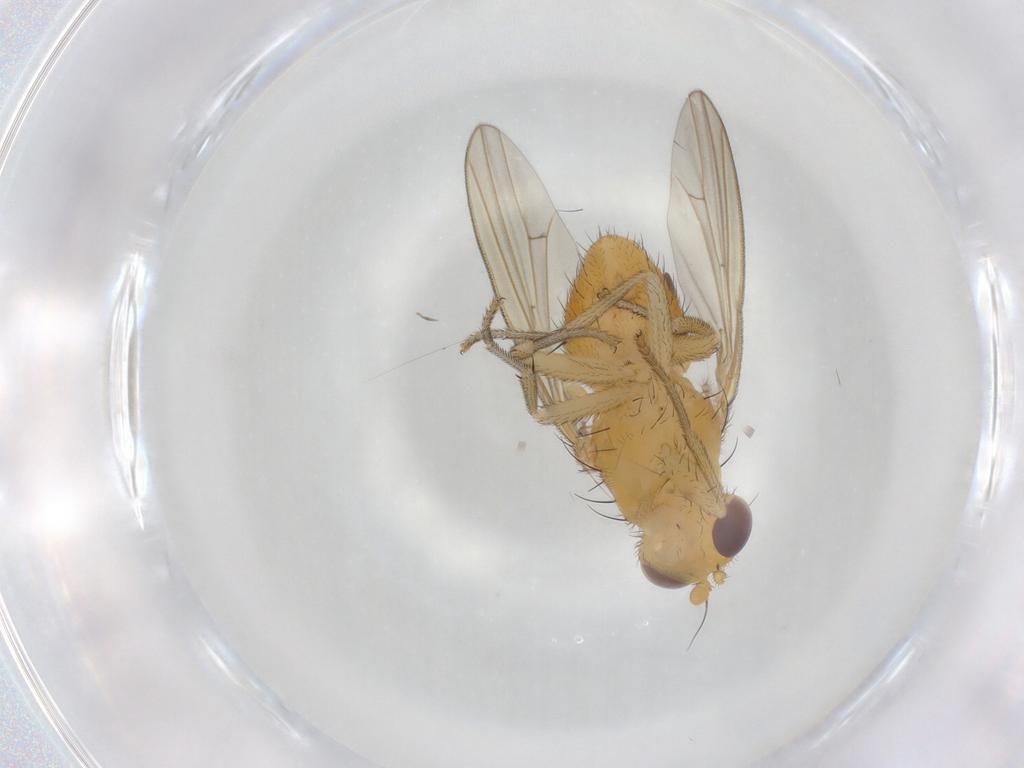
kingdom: Animalia
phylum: Arthropoda
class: Insecta
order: Diptera
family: Lauxaniidae
